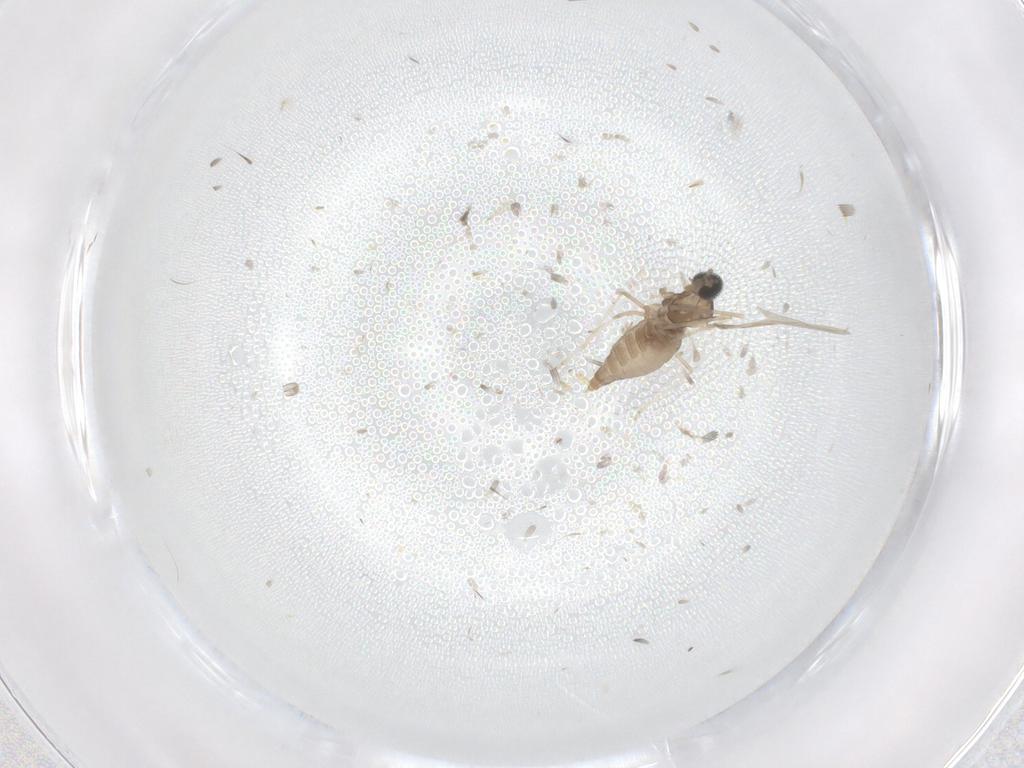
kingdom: Animalia
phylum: Arthropoda
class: Insecta
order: Diptera
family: Chironomidae
